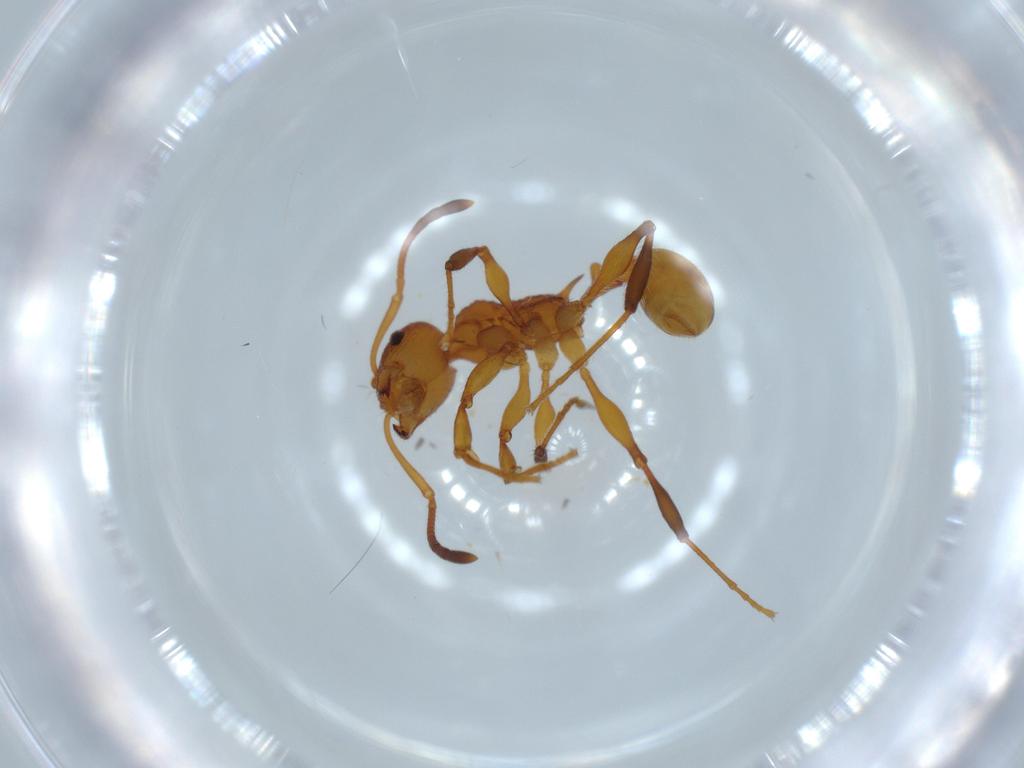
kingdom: Animalia
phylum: Arthropoda
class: Insecta
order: Hymenoptera
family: Formicidae
